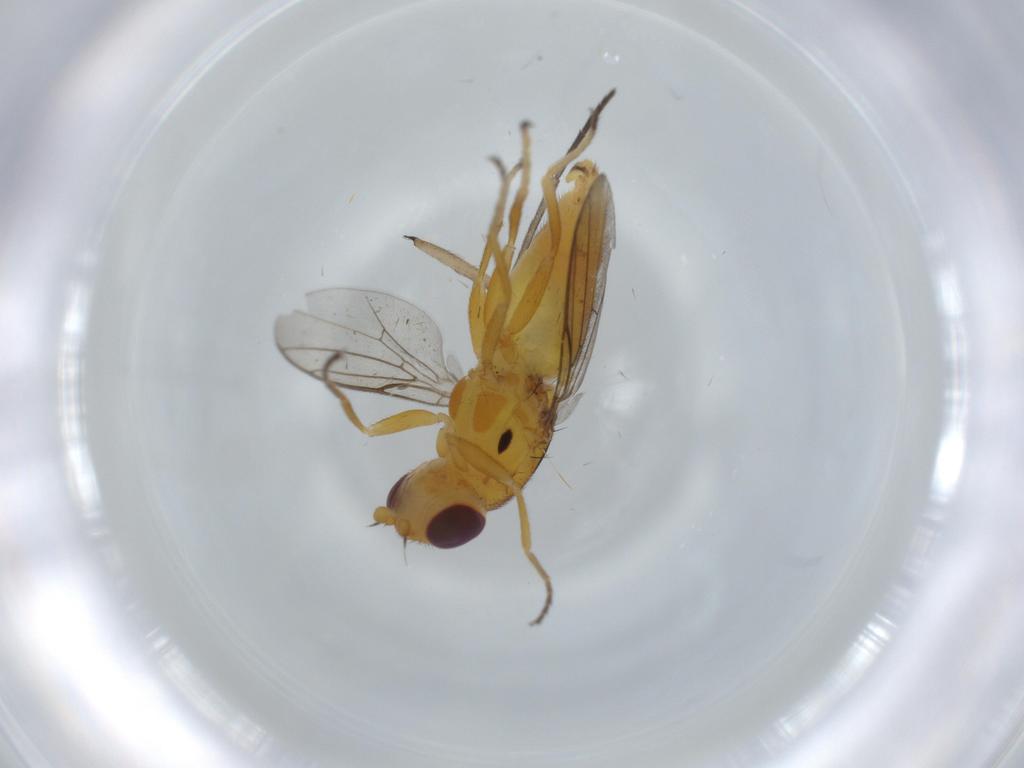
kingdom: Animalia
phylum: Arthropoda
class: Insecta
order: Diptera
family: Chloropidae
